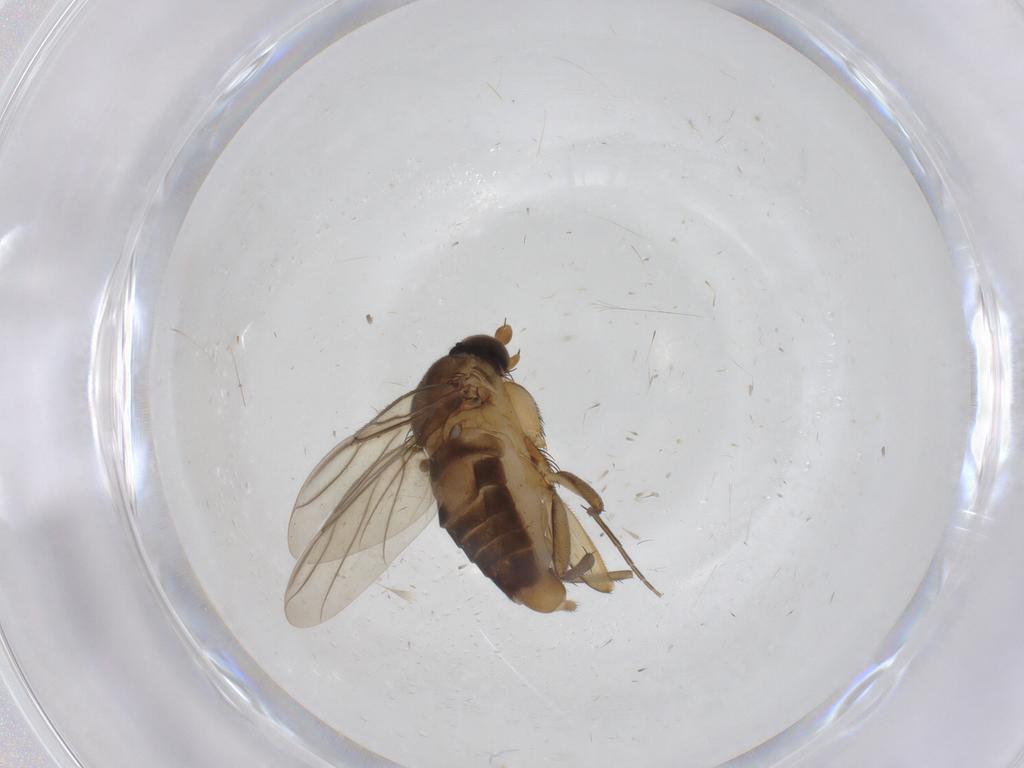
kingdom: Animalia
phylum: Arthropoda
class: Insecta
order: Diptera
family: Phoridae
